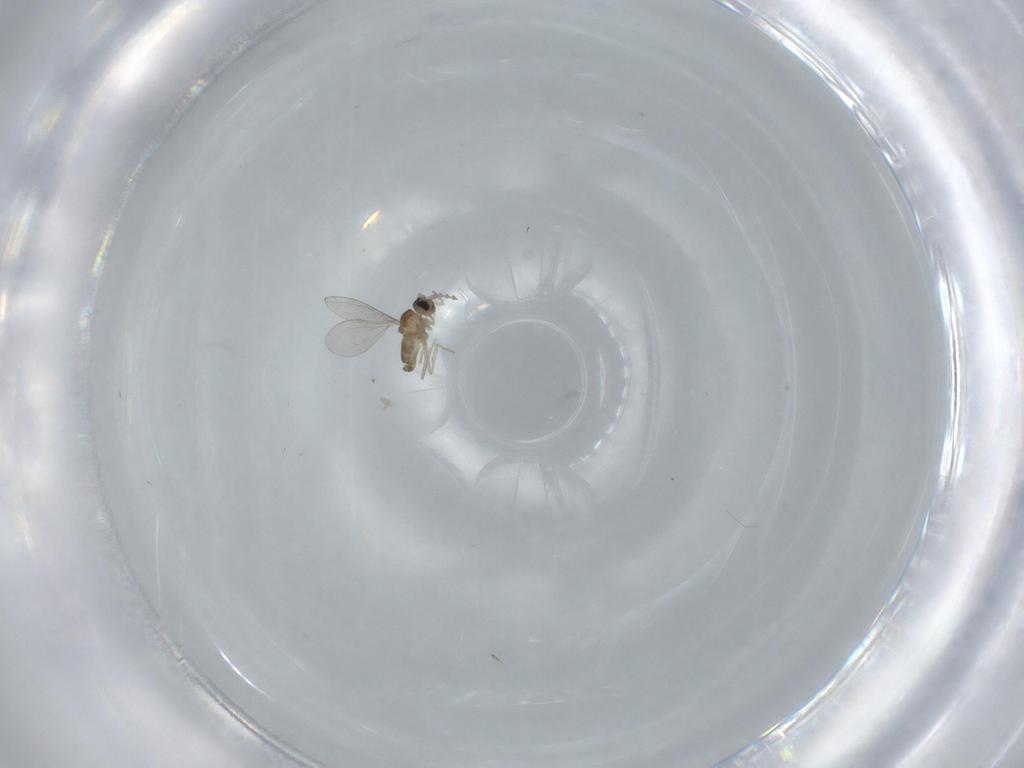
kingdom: Animalia
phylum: Arthropoda
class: Insecta
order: Diptera
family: Cecidomyiidae
